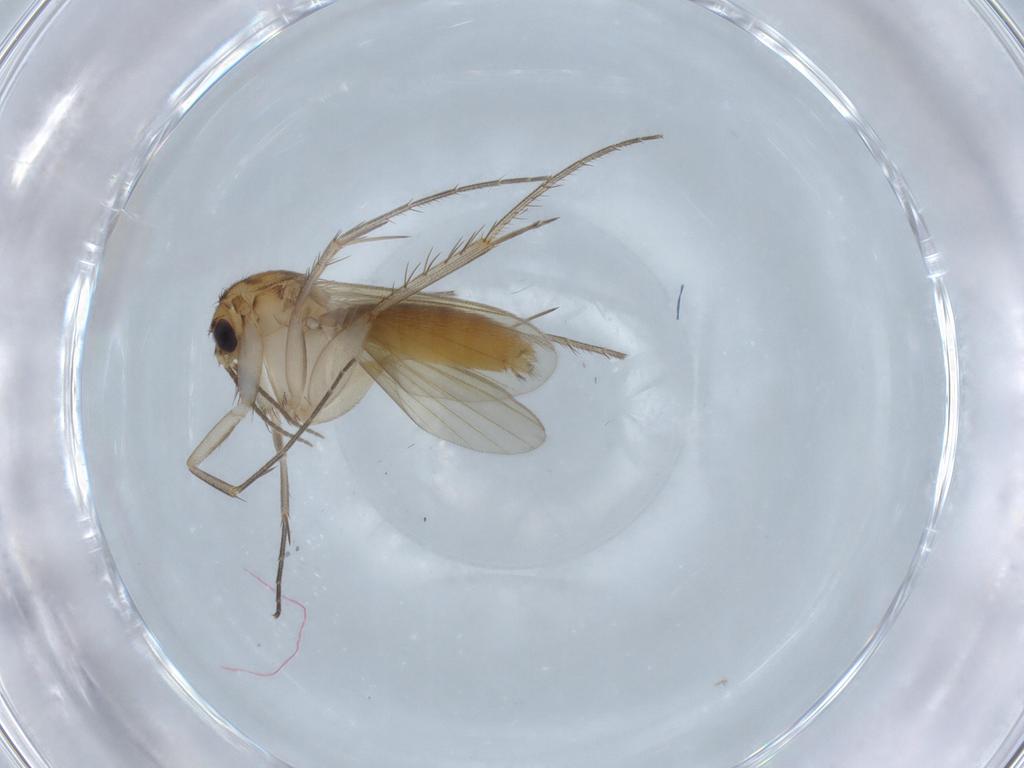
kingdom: Animalia
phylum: Arthropoda
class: Insecta
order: Diptera
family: Mycetophilidae
